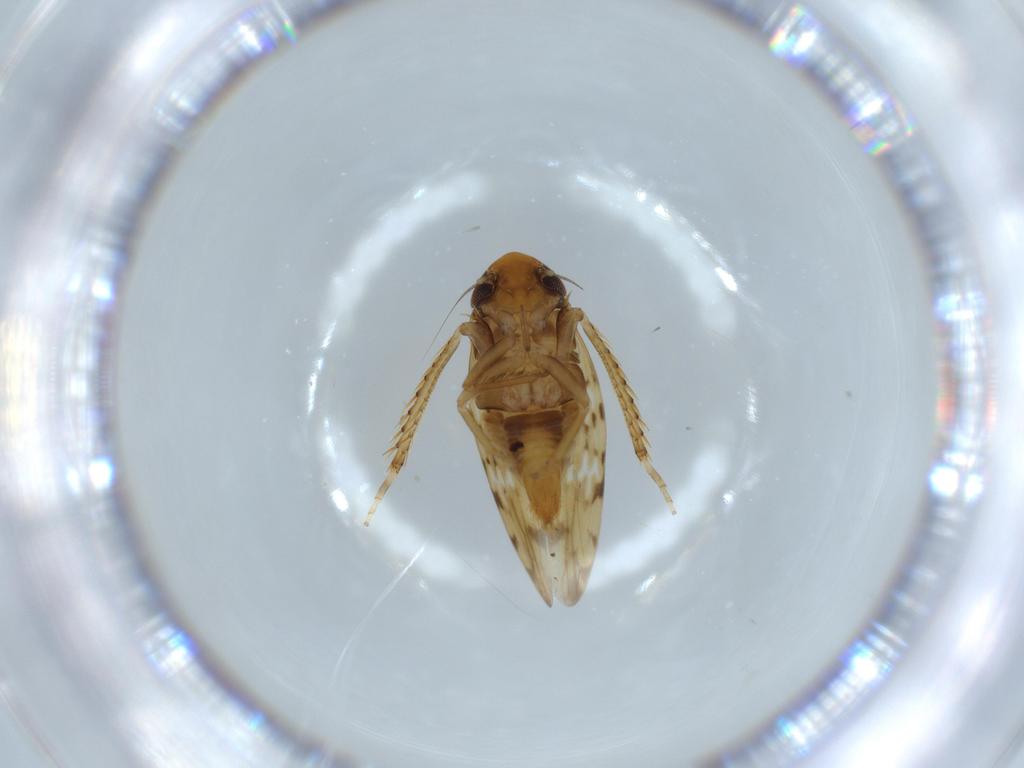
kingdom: Animalia
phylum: Arthropoda
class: Insecta
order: Hemiptera
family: Cicadellidae
